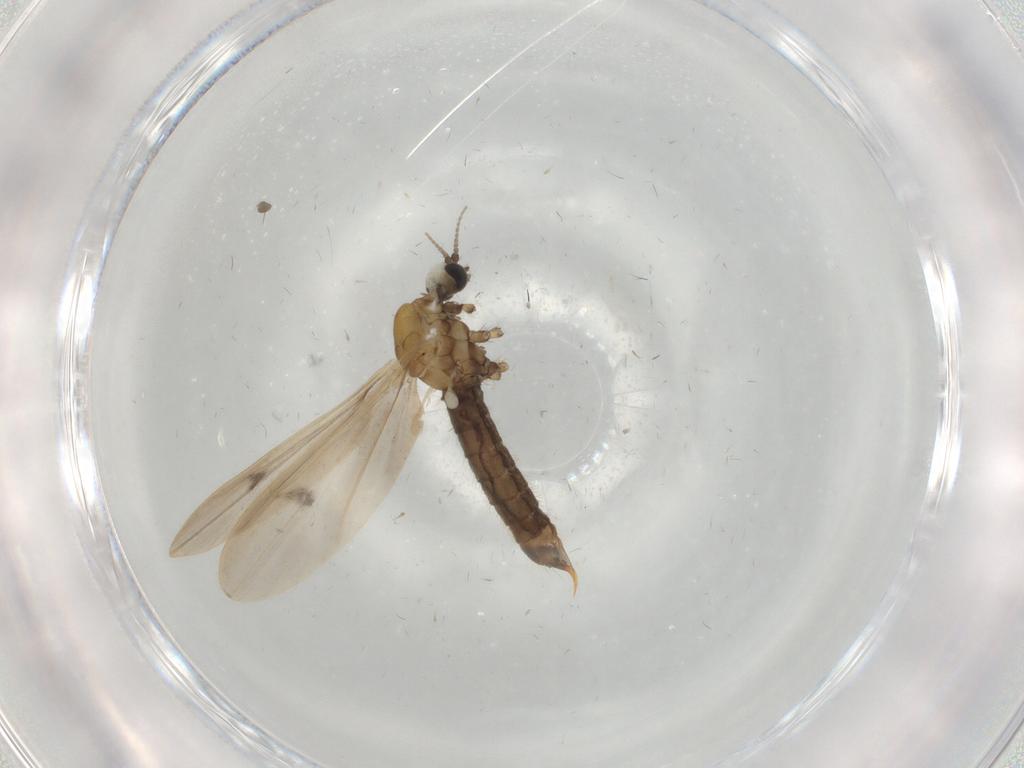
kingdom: Animalia
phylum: Arthropoda
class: Insecta
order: Diptera
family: Limoniidae
